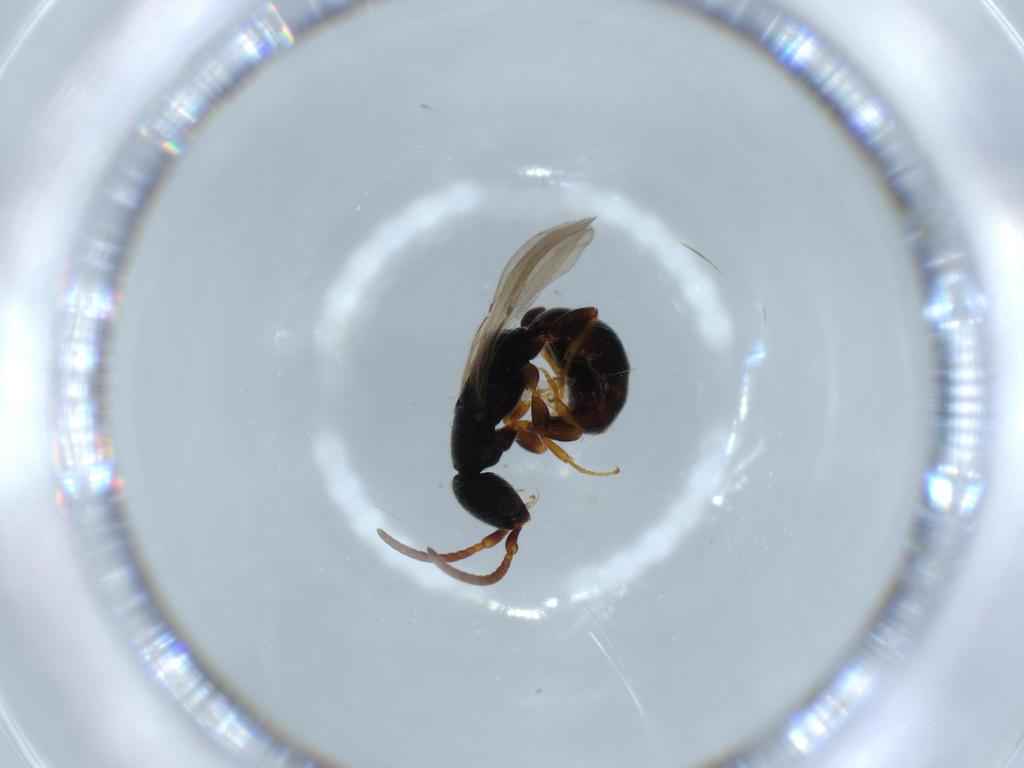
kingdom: Animalia
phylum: Arthropoda
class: Insecta
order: Hymenoptera
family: Bethylidae
